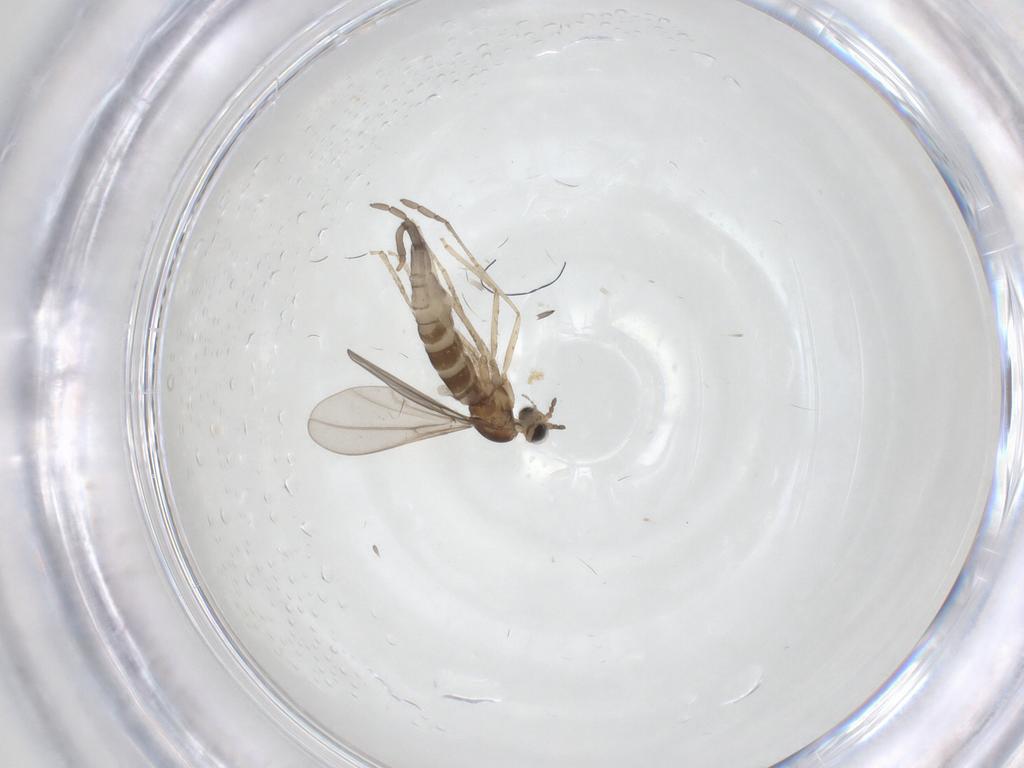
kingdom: Animalia
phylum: Arthropoda
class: Insecta
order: Diptera
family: Cecidomyiidae
